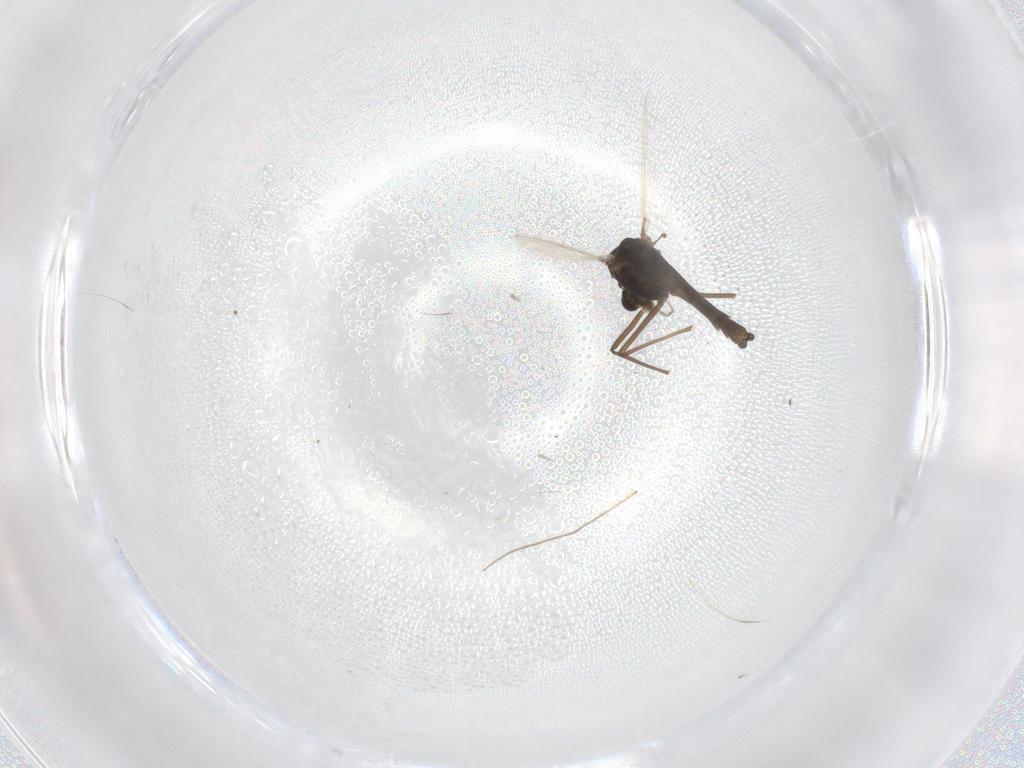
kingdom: Animalia
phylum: Arthropoda
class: Insecta
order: Diptera
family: Chironomidae
